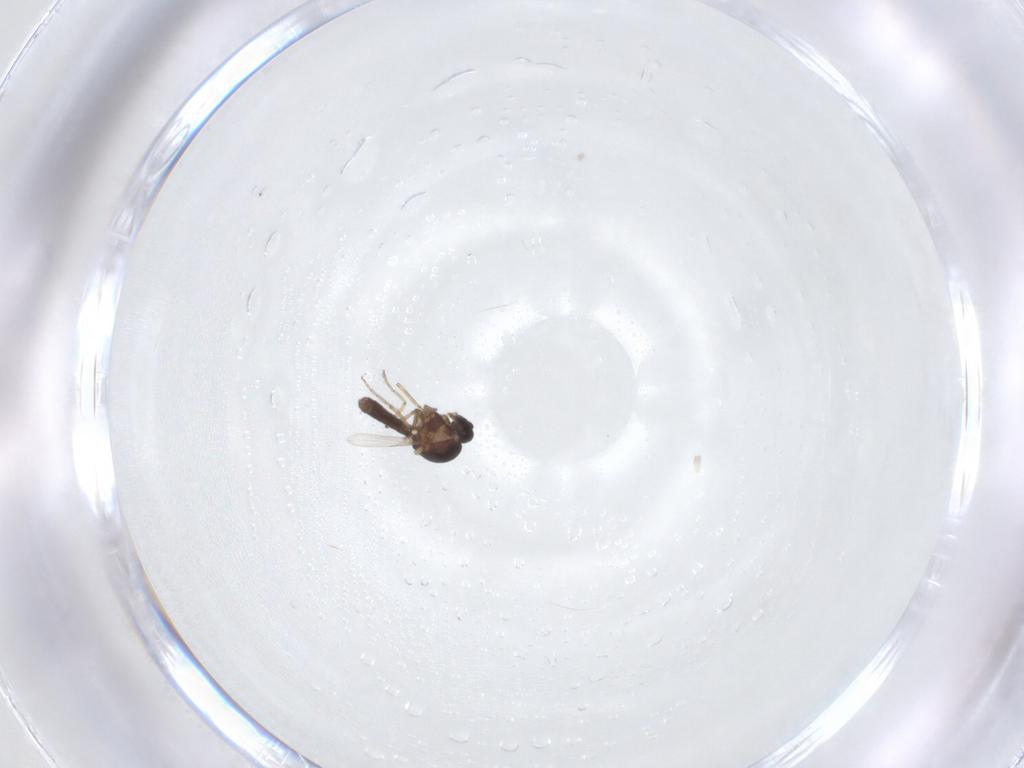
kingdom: Animalia
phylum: Arthropoda
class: Insecta
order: Diptera
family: Ceratopogonidae
